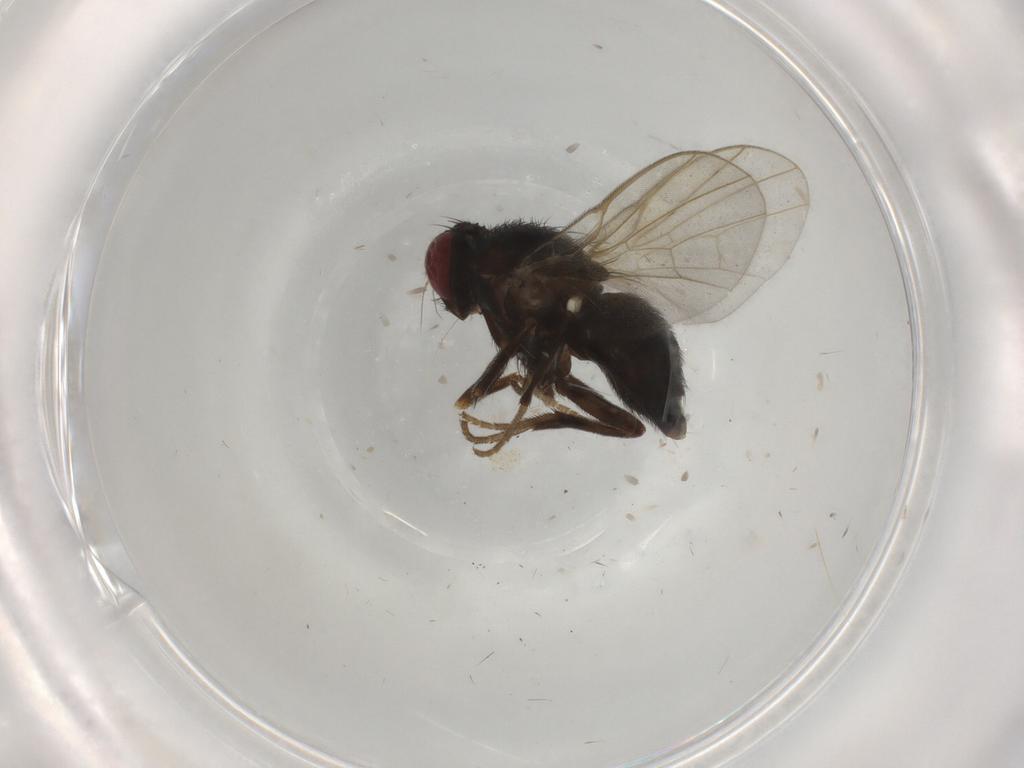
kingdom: Animalia
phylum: Arthropoda
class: Insecta
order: Diptera
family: Agromyzidae
